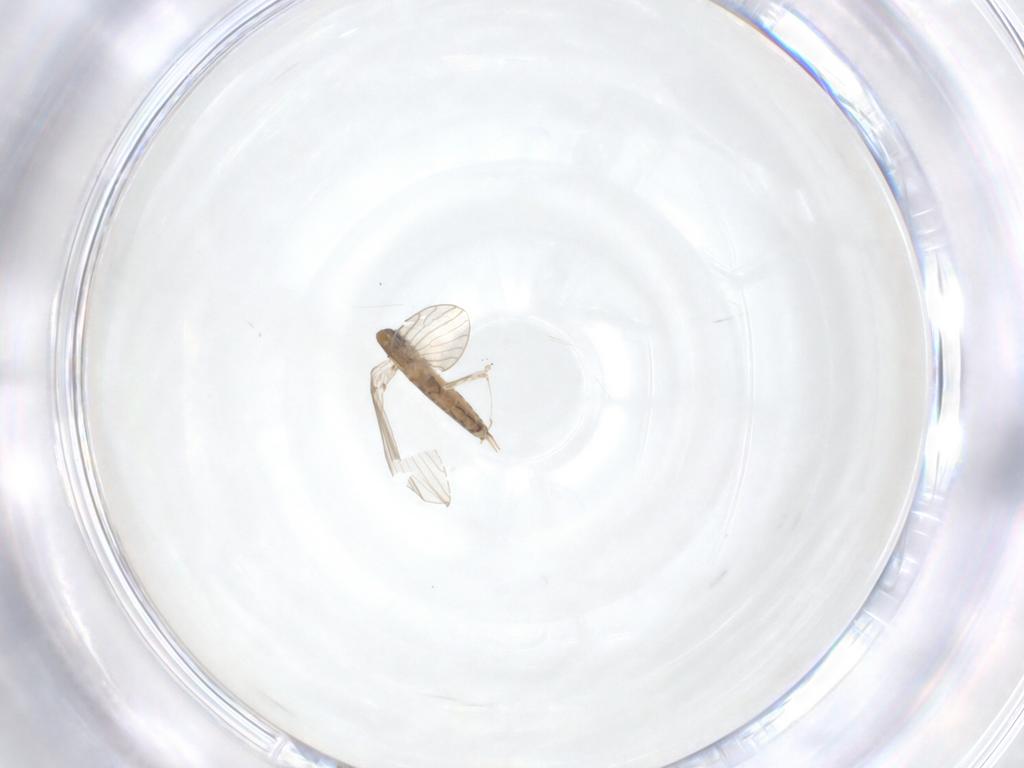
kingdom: Animalia
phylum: Arthropoda
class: Insecta
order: Diptera
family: Cecidomyiidae
